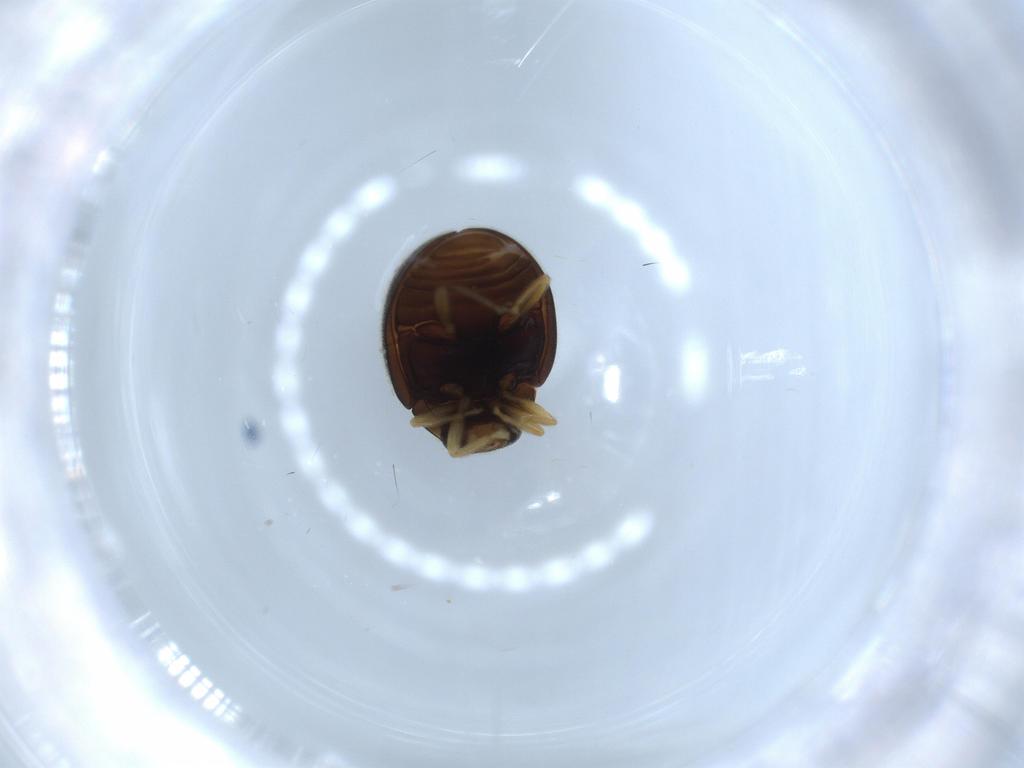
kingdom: Animalia
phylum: Arthropoda
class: Insecta
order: Coleoptera
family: Coccinellidae
